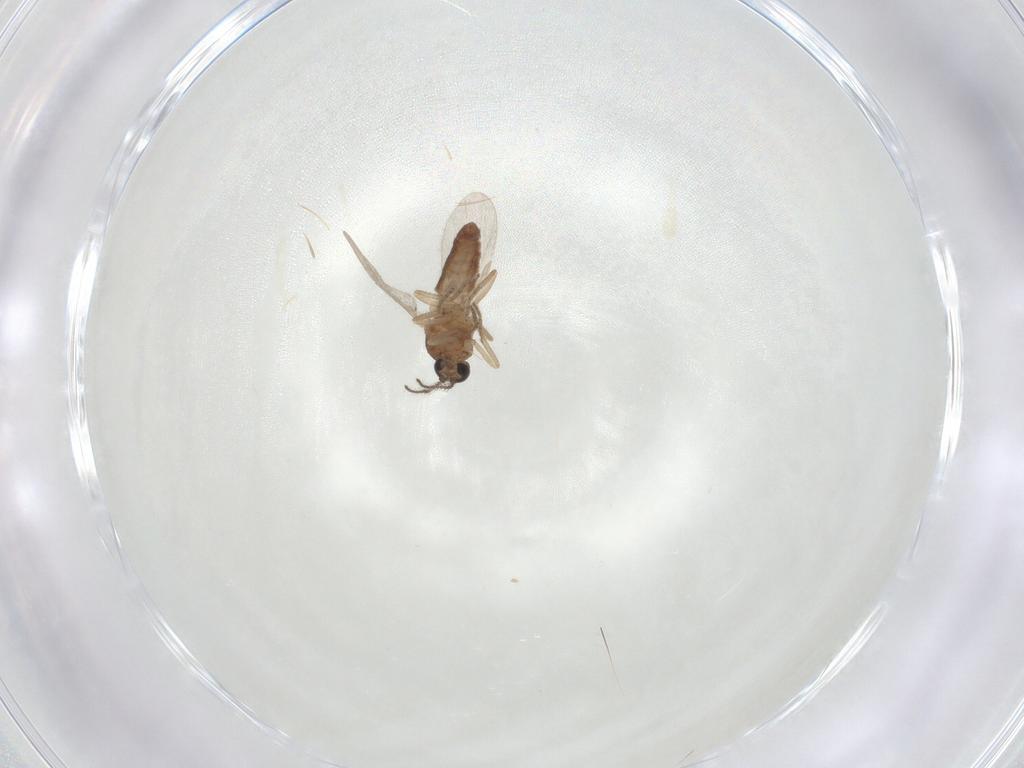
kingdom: Animalia
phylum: Arthropoda
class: Insecta
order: Diptera
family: Ceratopogonidae
